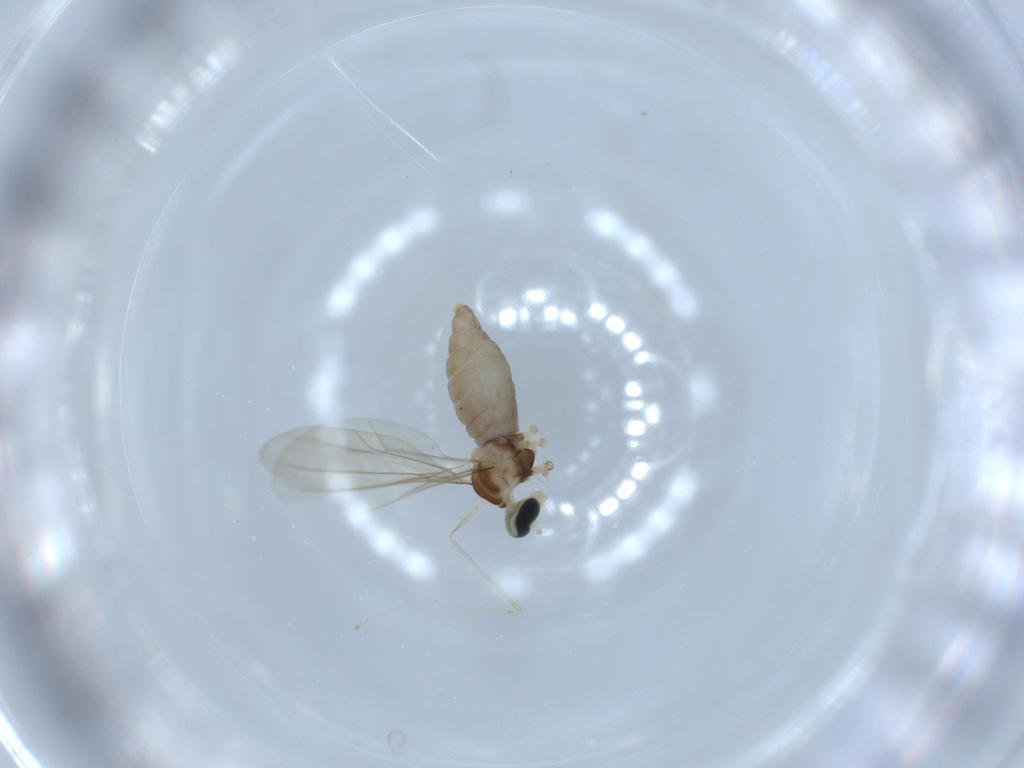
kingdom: Animalia
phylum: Arthropoda
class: Insecta
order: Diptera
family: Cecidomyiidae
